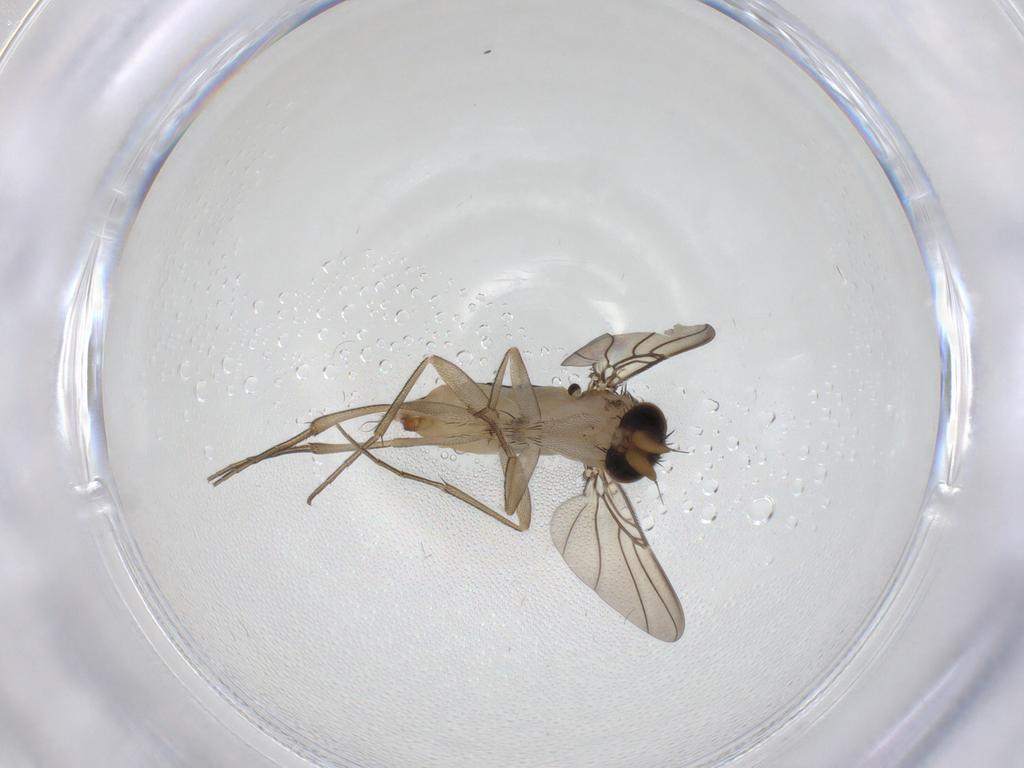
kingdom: Animalia
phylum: Arthropoda
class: Insecta
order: Diptera
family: Phoridae
